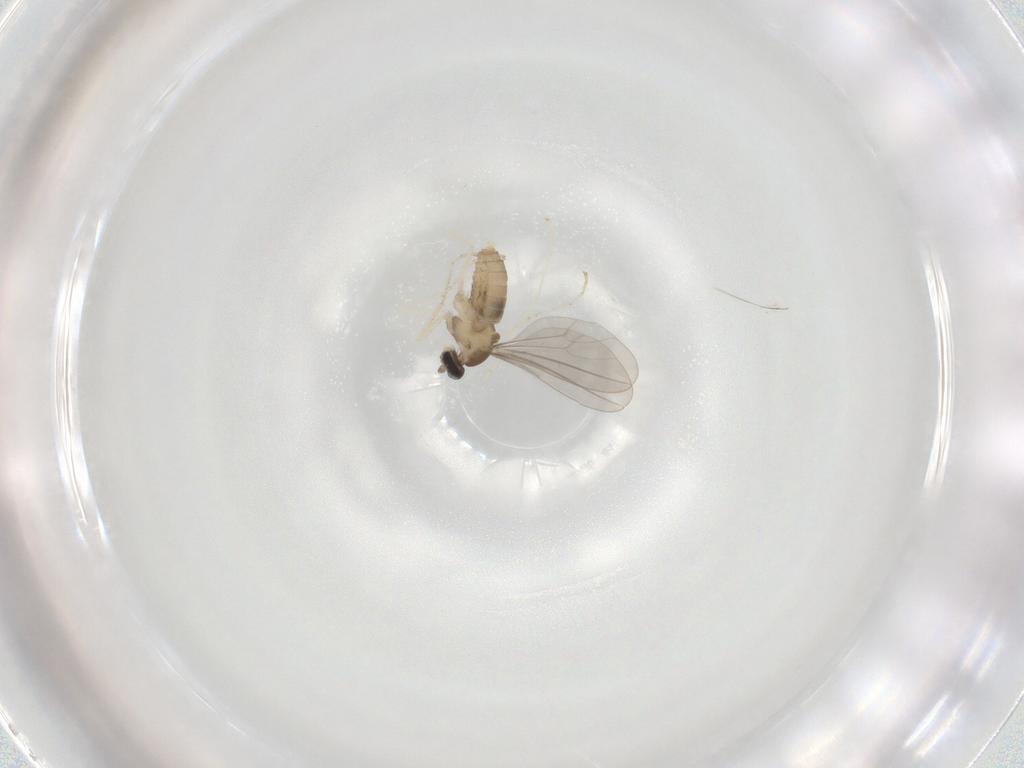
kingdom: Animalia
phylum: Arthropoda
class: Insecta
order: Diptera
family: Cecidomyiidae
